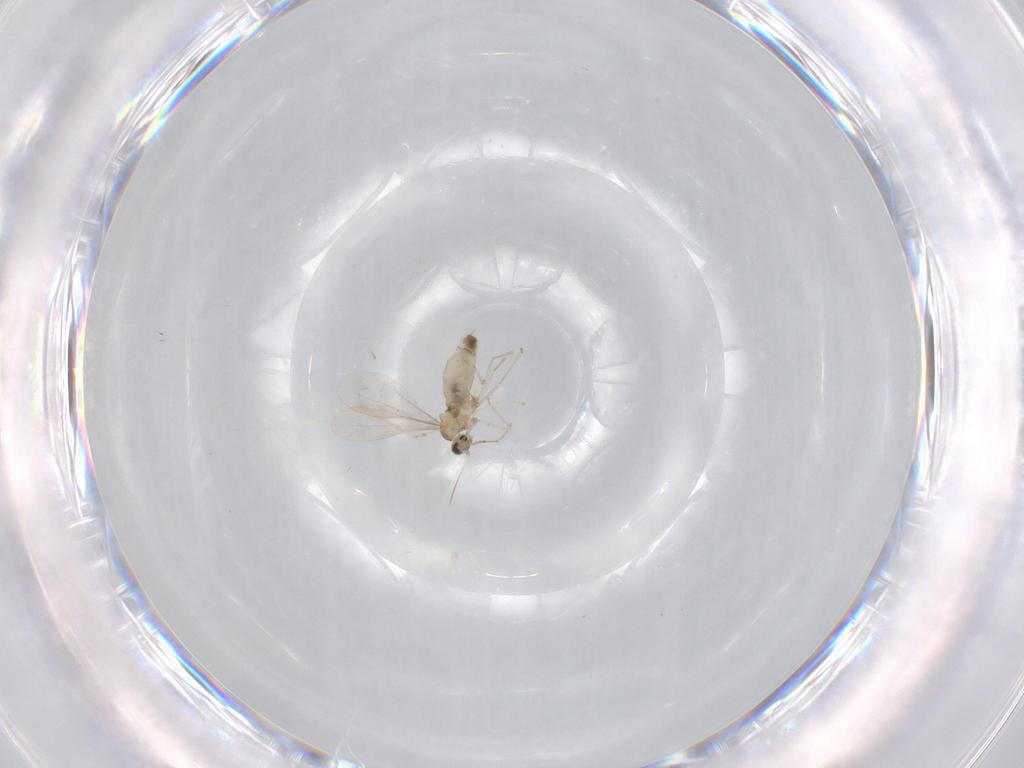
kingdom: Animalia
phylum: Arthropoda
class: Insecta
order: Diptera
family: Cecidomyiidae
